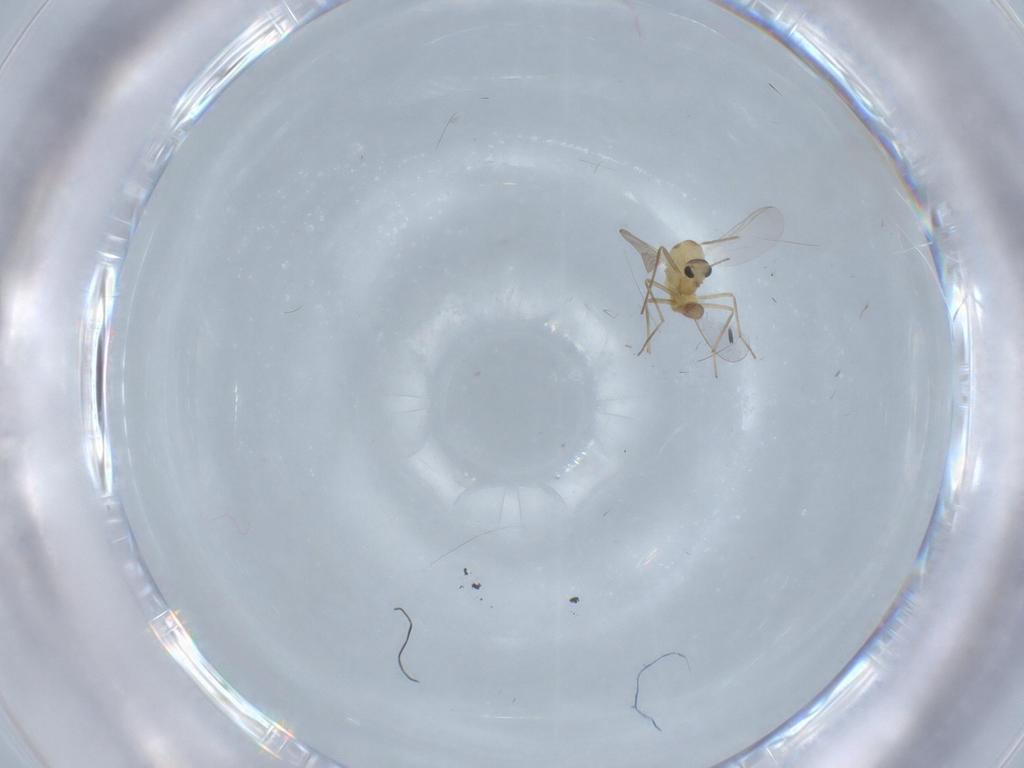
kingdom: Animalia
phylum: Arthropoda
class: Insecta
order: Diptera
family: Chironomidae
